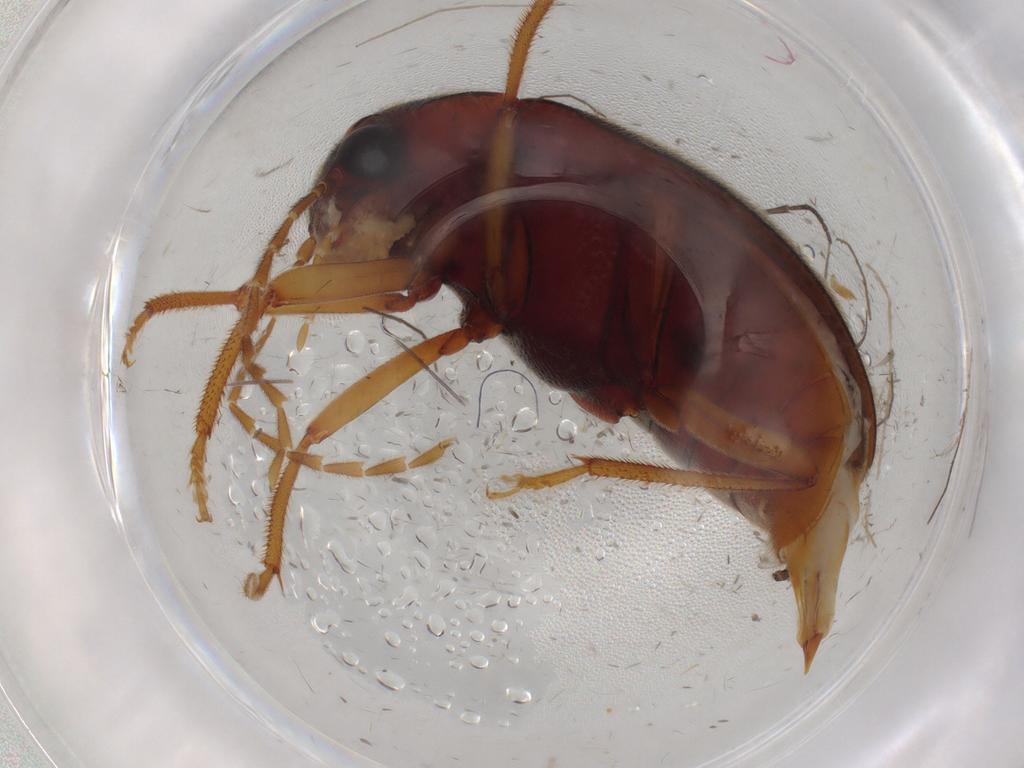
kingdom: Animalia
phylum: Arthropoda
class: Insecta
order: Coleoptera
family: Ptilodactylidae
